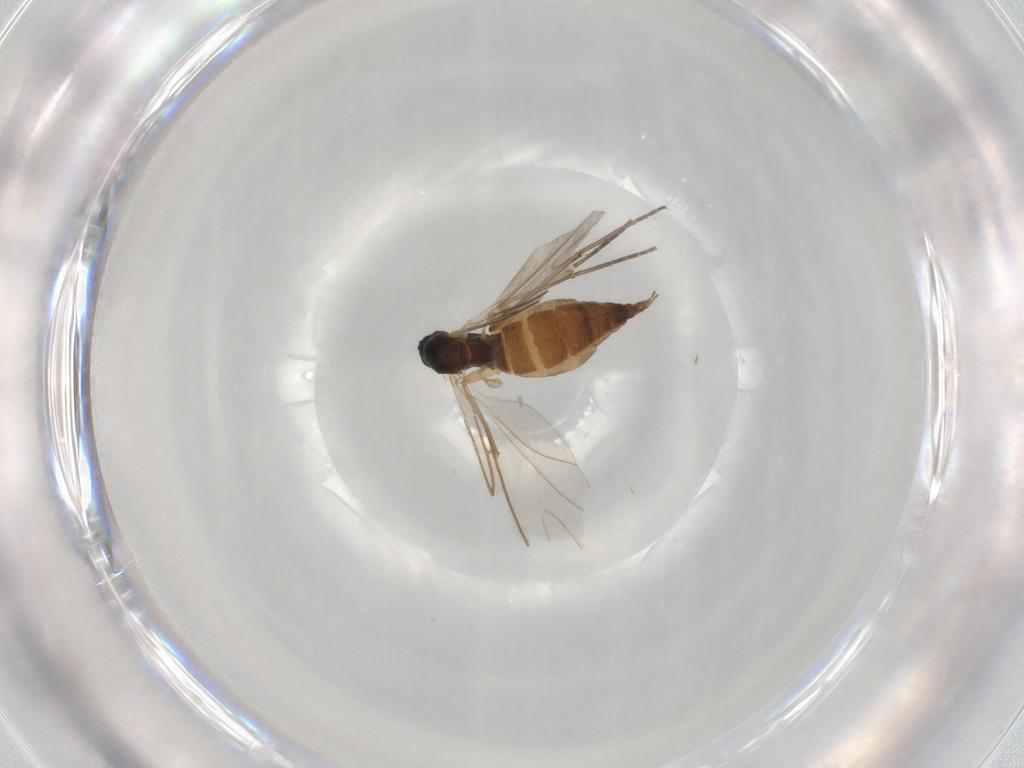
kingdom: Animalia
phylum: Arthropoda
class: Insecta
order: Diptera
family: Sciaridae
